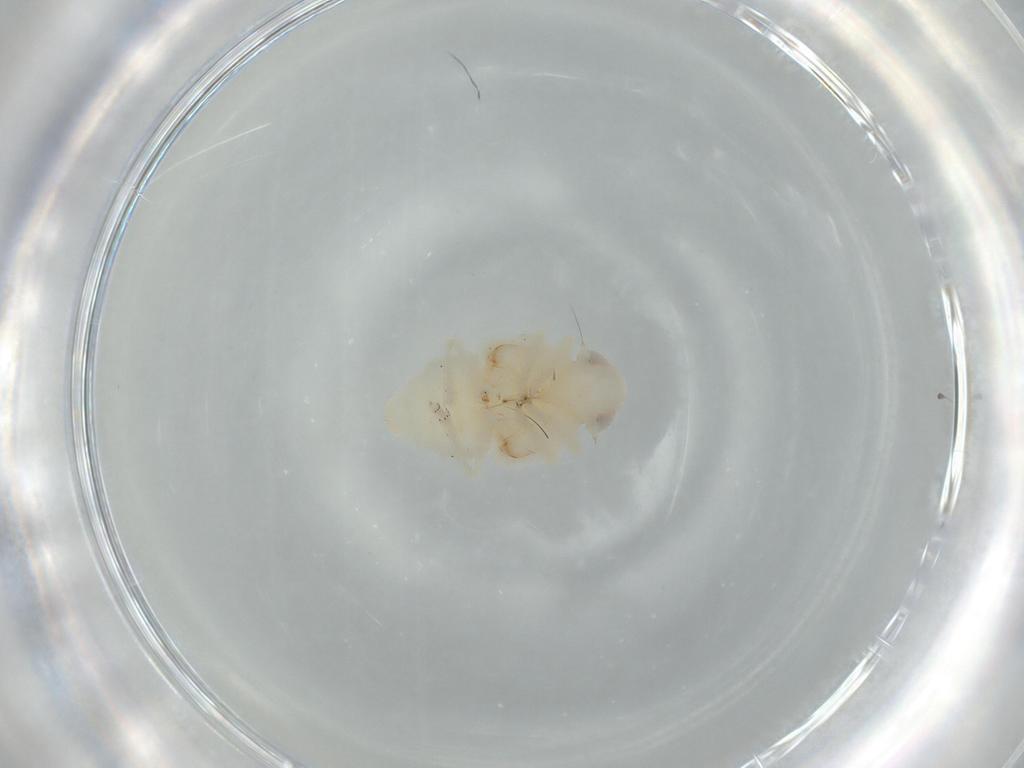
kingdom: Animalia
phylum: Arthropoda
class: Insecta
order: Hemiptera
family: Nogodinidae
